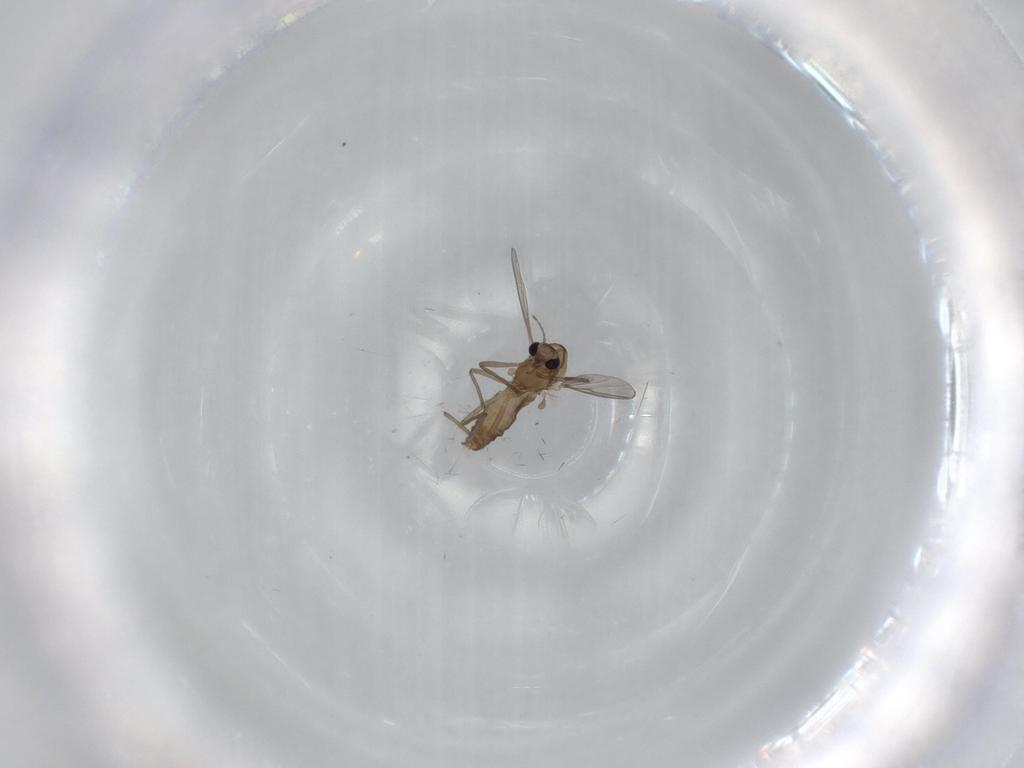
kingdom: Animalia
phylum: Arthropoda
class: Insecta
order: Diptera
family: Chironomidae
